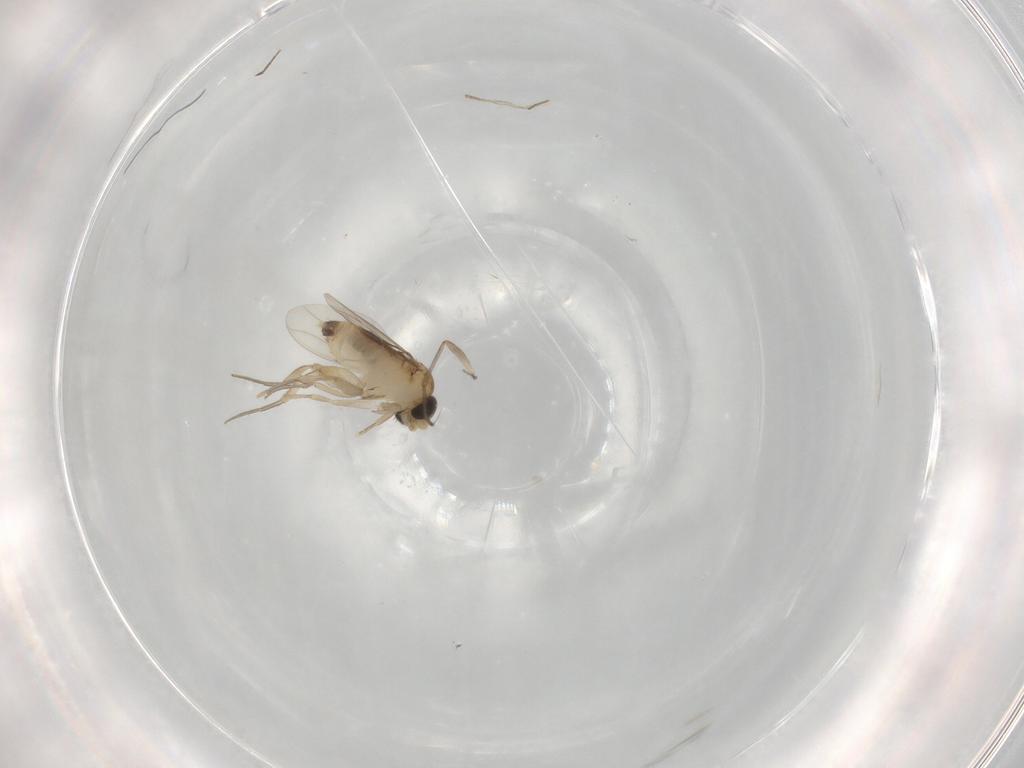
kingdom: Animalia
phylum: Arthropoda
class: Insecta
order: Diptera
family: Phoridae
